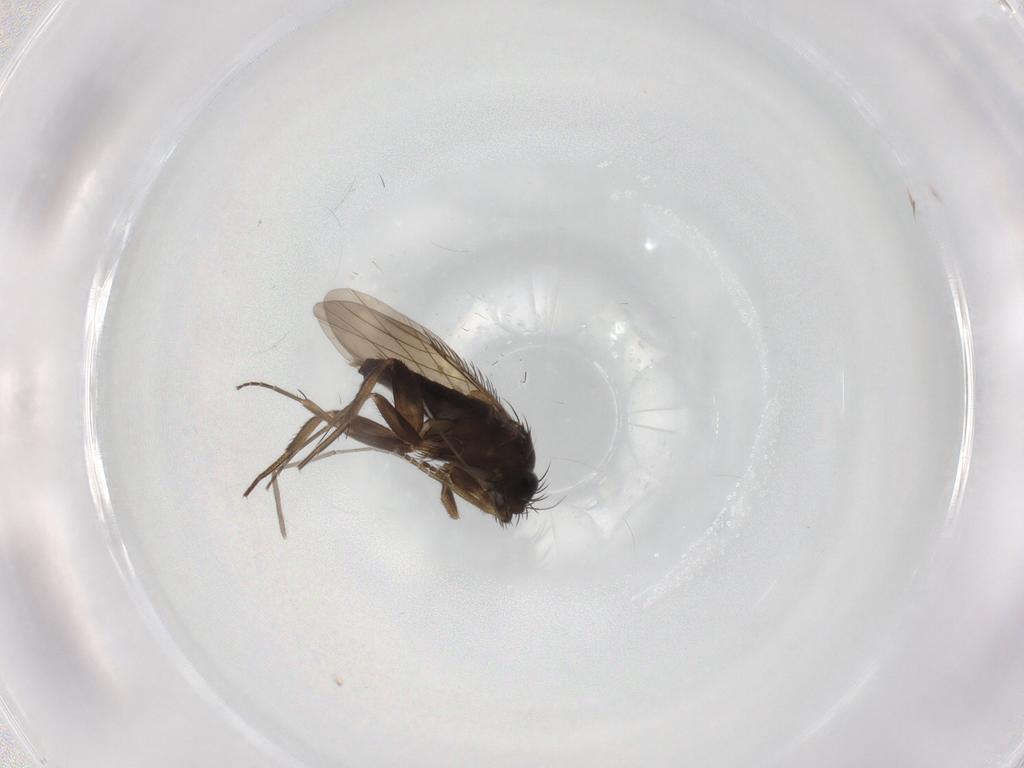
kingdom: Animalia
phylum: Arthropoda
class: Insecta
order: Diptera
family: Phoridae
